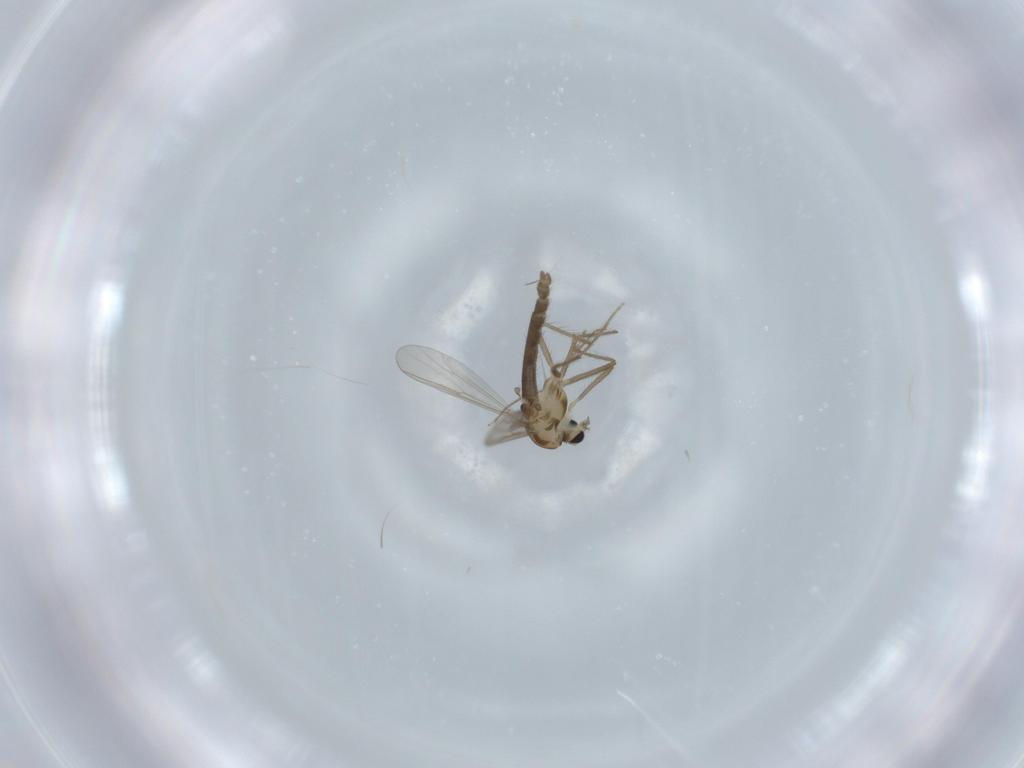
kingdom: Animalia
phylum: Arthropoda
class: Insecta
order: Diptera
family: Chironomidae
